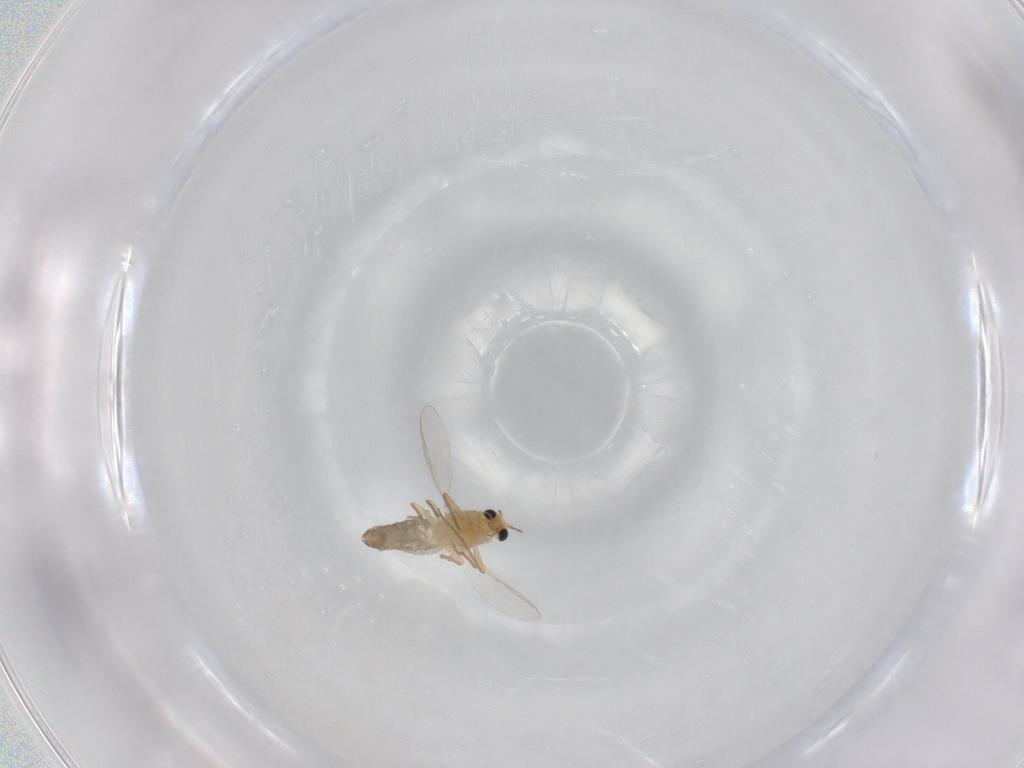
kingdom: Animalia
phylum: Arthropoda
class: Insecta
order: Diptera
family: Chironomidae
